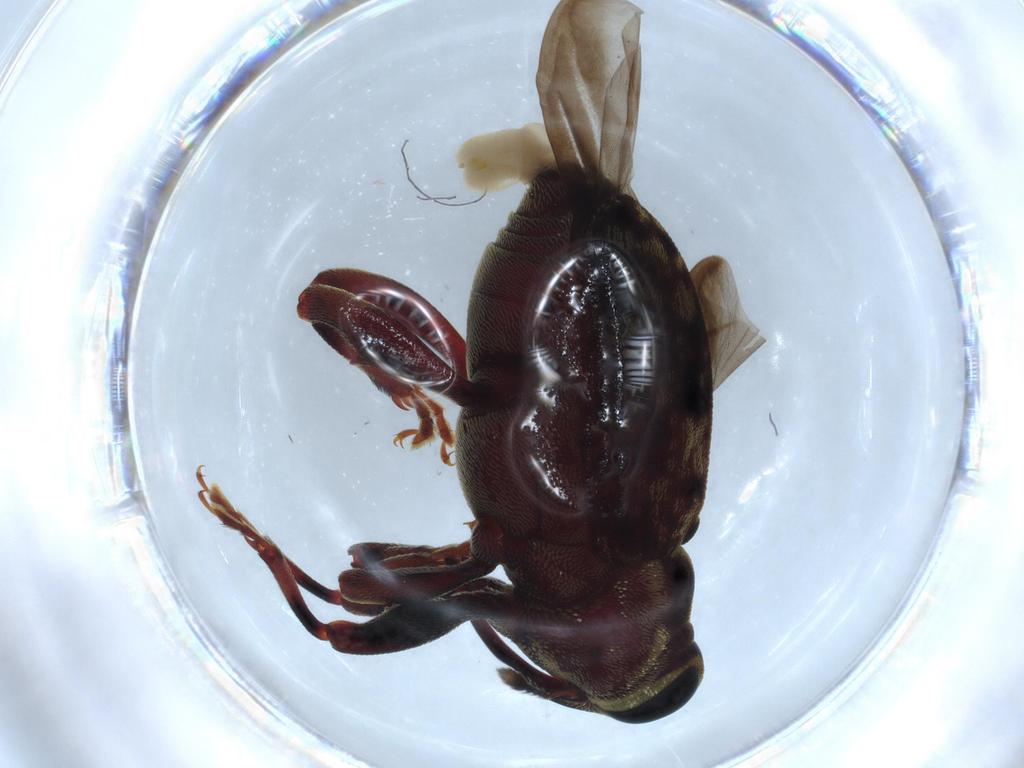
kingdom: Animalia
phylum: Arthropoda
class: Insecta
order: Coleoptera
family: Curculionidae
